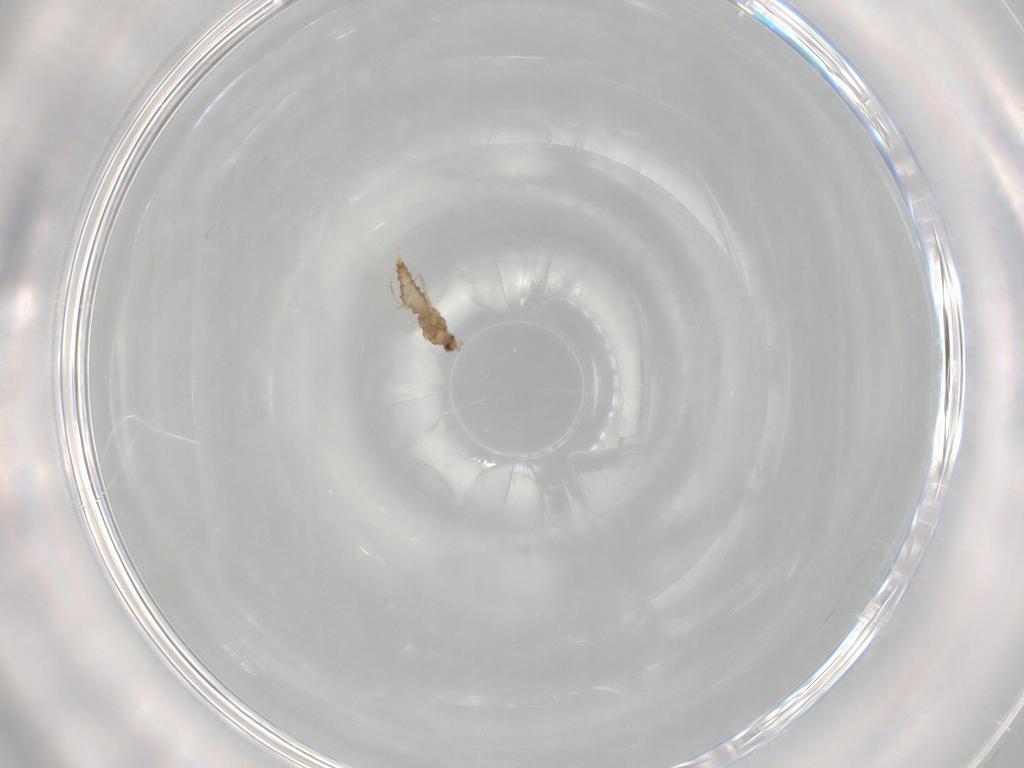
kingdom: Animalia
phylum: Arthropoda
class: Insecta
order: Diptera
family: Cecidomyiidae
